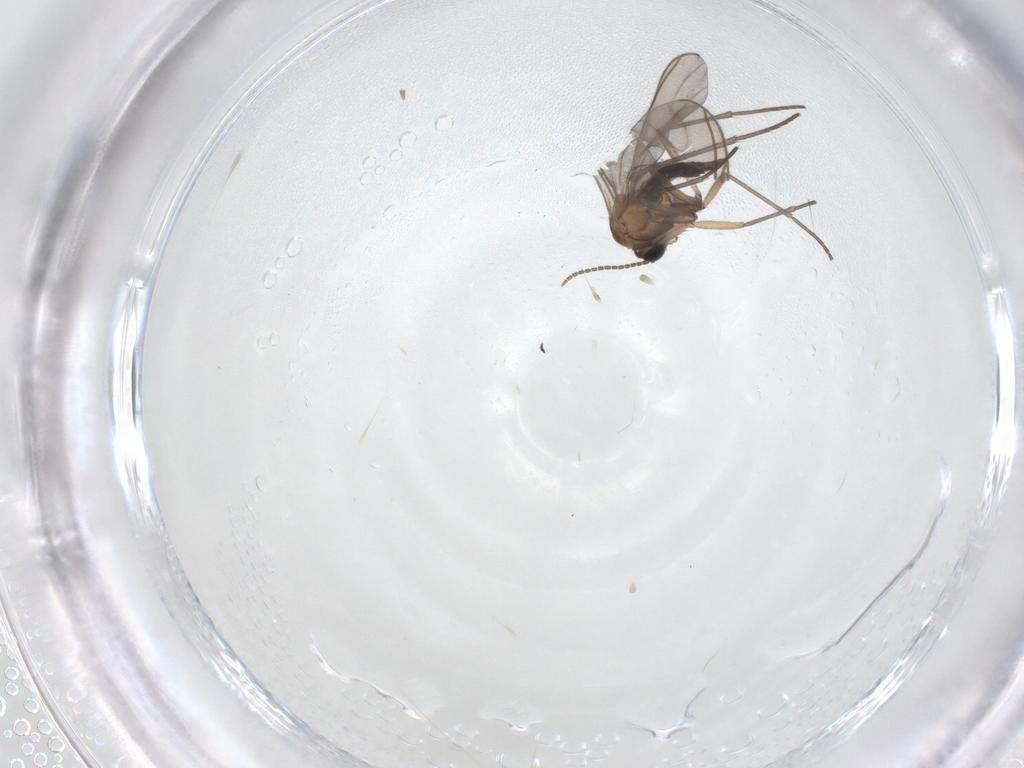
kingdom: Animalia
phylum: Arthropoda
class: Insecta
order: Diptera
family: Sciaridae
